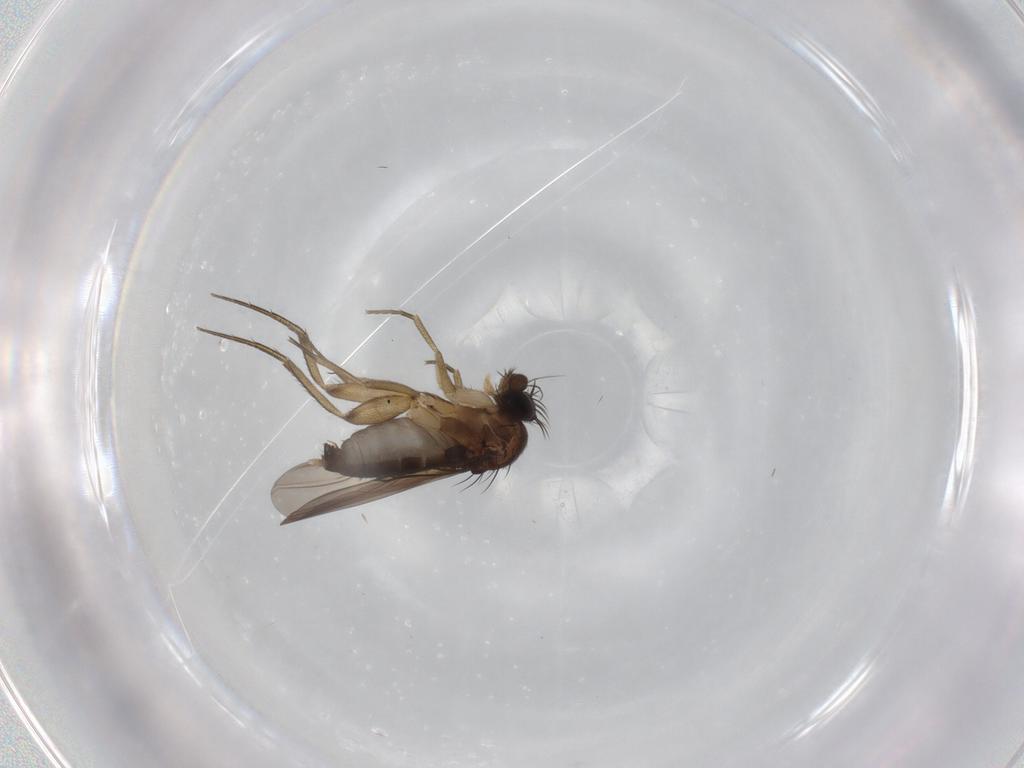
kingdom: Animalia
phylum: Arthropoda
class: Insecta
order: Diptera
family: Phoridae
